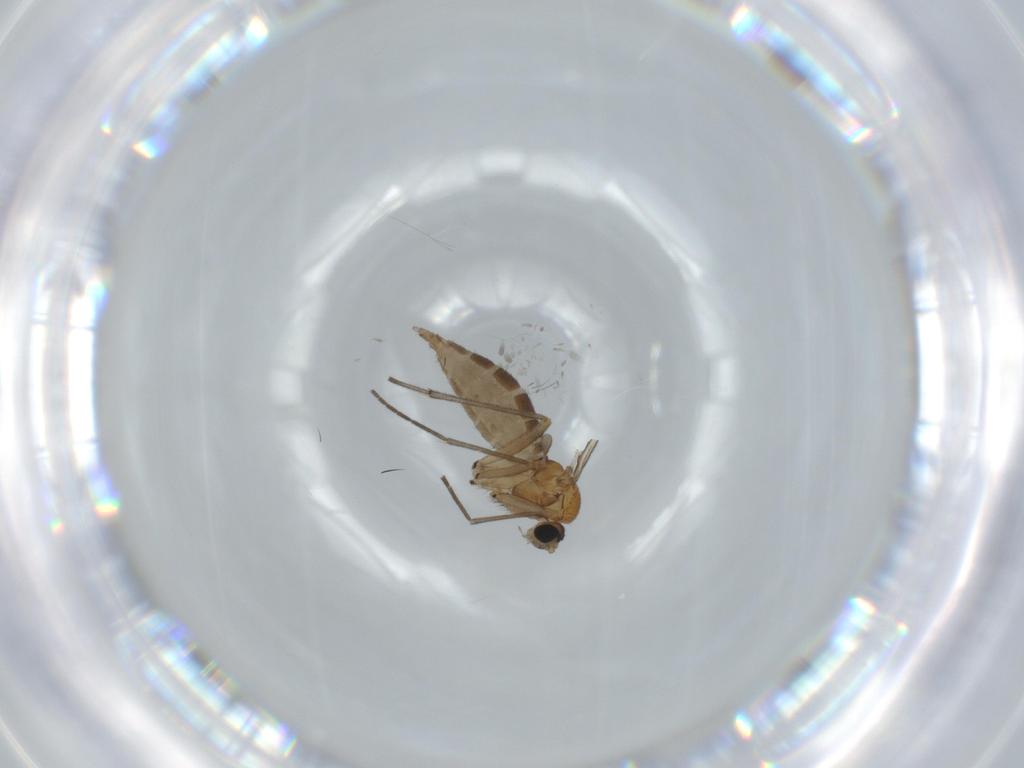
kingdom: Animalia
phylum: Arthropoda
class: Insecta
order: Diptera
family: Sciaridae
